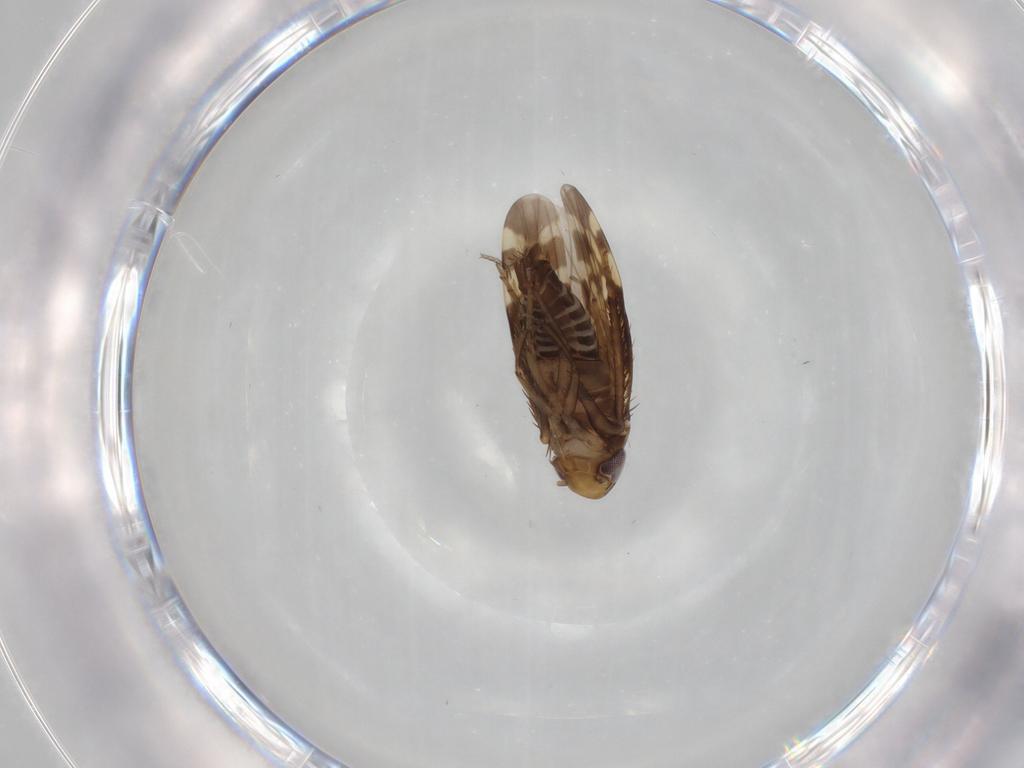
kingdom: Animalia
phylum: Arthropoda
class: Insecta
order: Hemiptera
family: Cicadellidae
